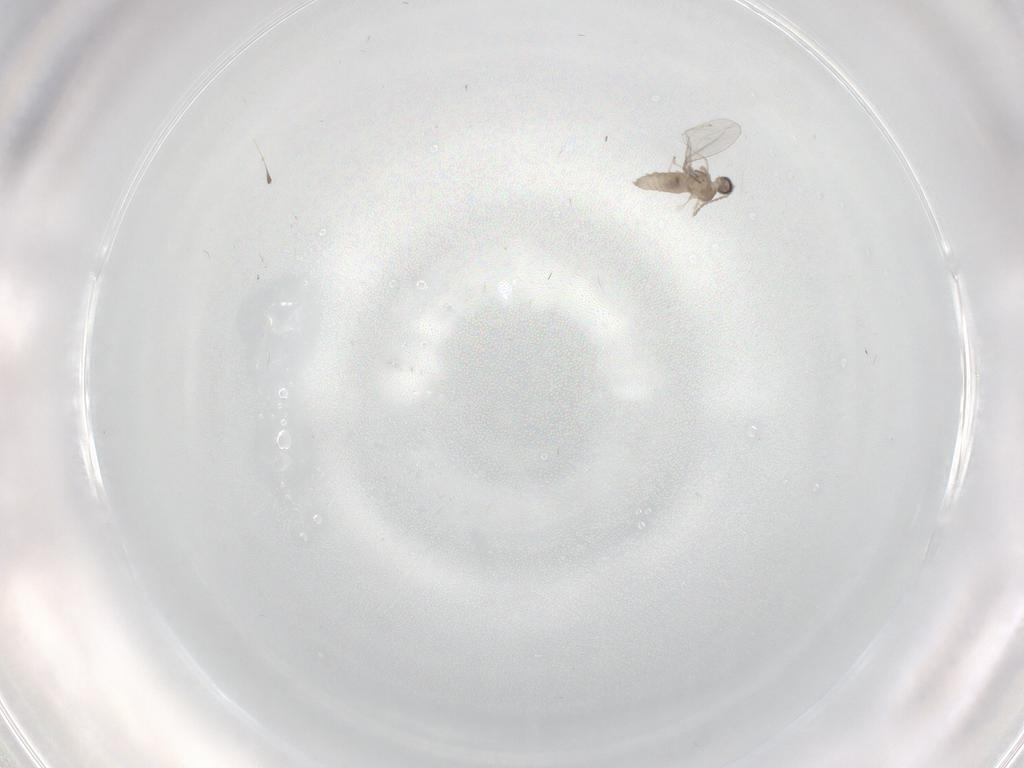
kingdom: Animalia
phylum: Arthropoda
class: Insecta
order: Diptera
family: Cecidomyiidae
